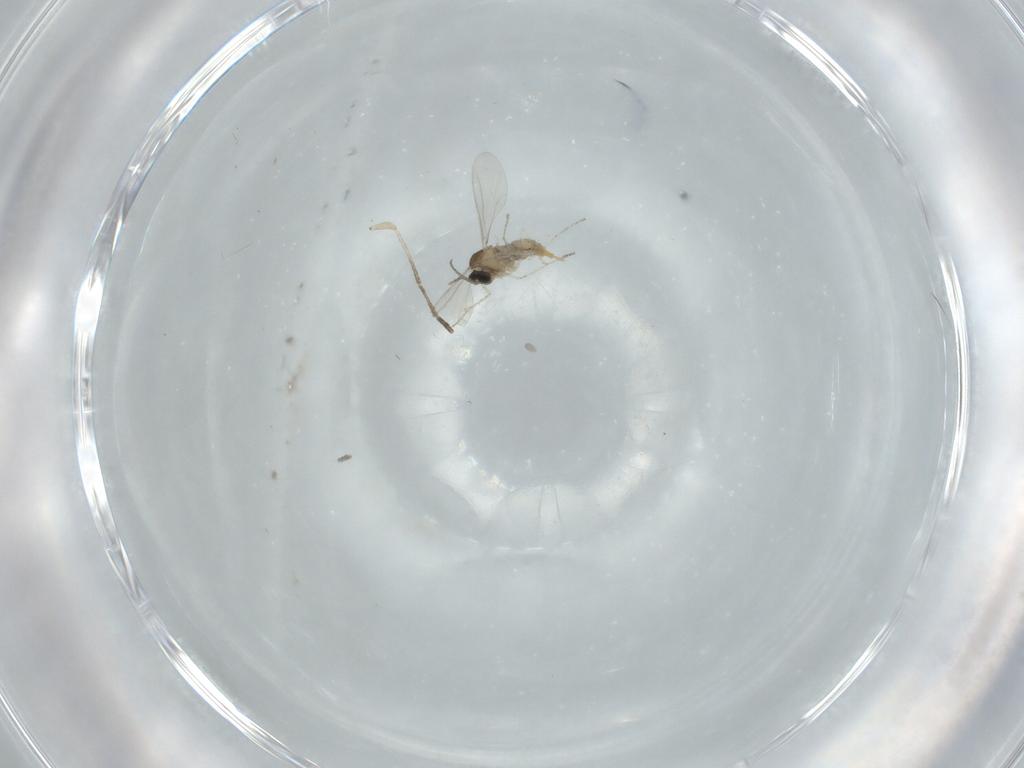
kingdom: Animalia
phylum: Arthropoda
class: Insecta
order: Diptera
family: Cecidomyiidae
